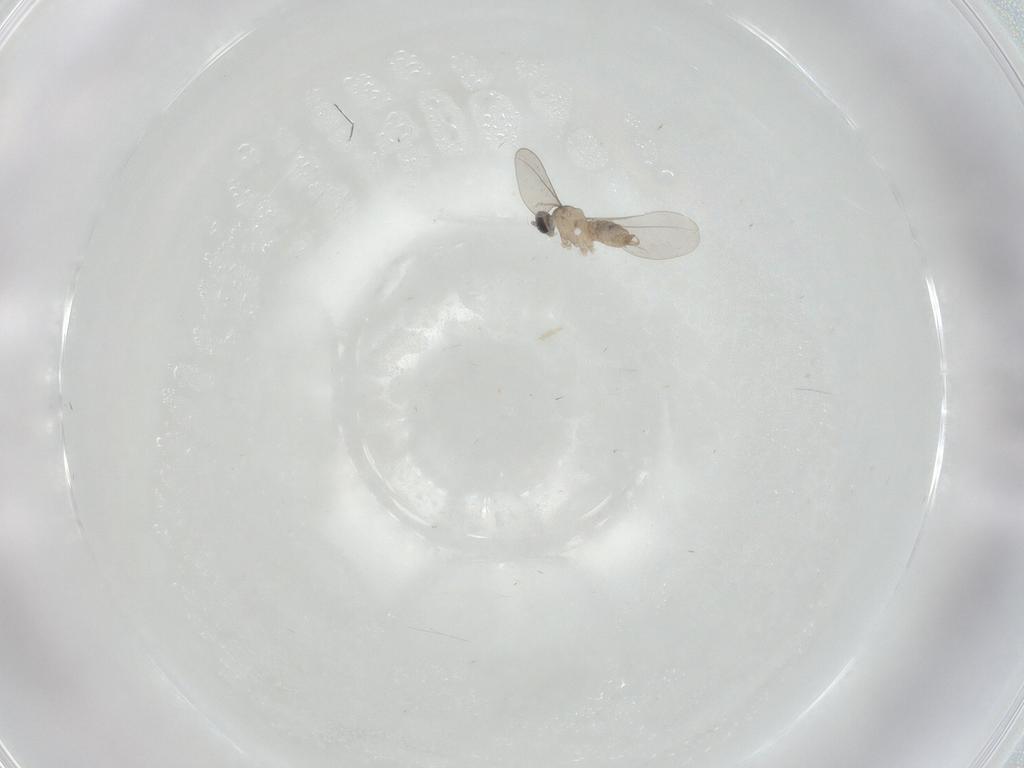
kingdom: Animalia
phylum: Arthropoda
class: Insecta
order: Diptera
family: Cecidomyiidae
